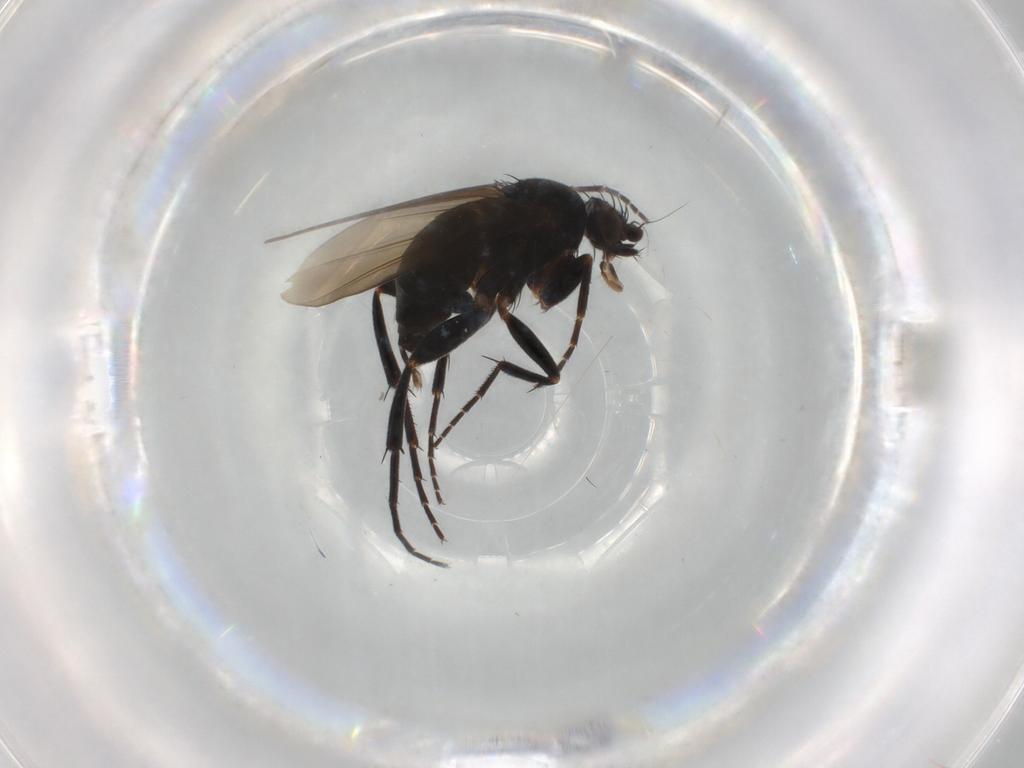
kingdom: Animalia
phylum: Arthropoda
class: Insecta
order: Diptera
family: Phoridae
